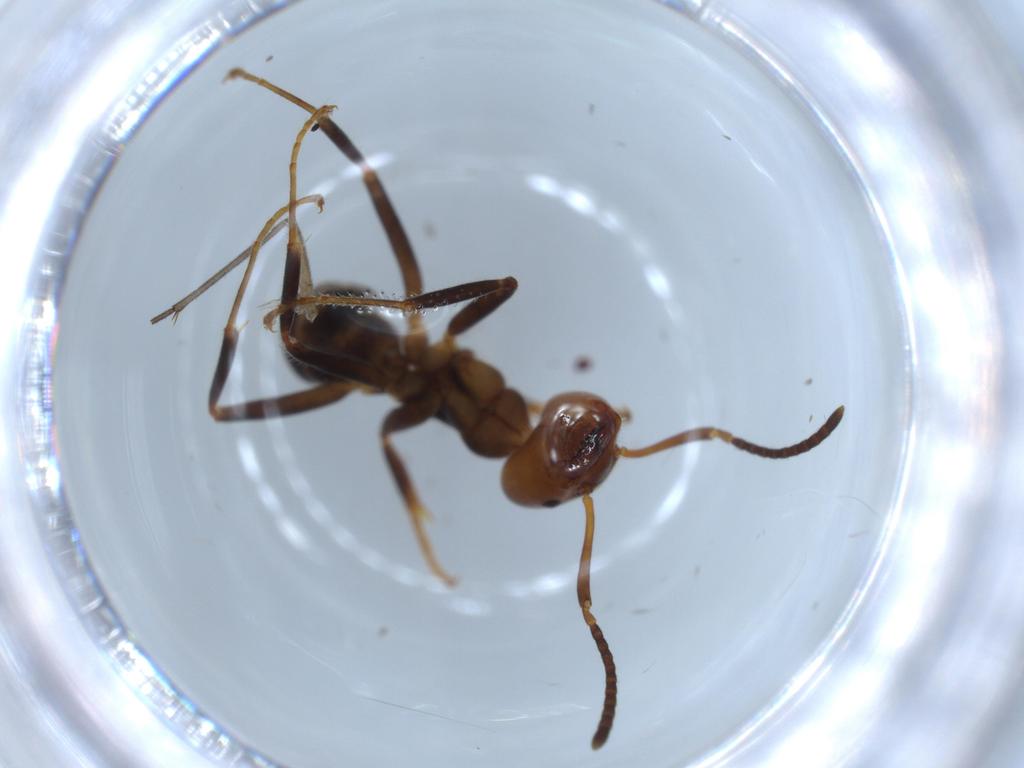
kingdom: Animalia
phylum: Arthropoda
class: Insecta
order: Hymenoptera
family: Formicidae
